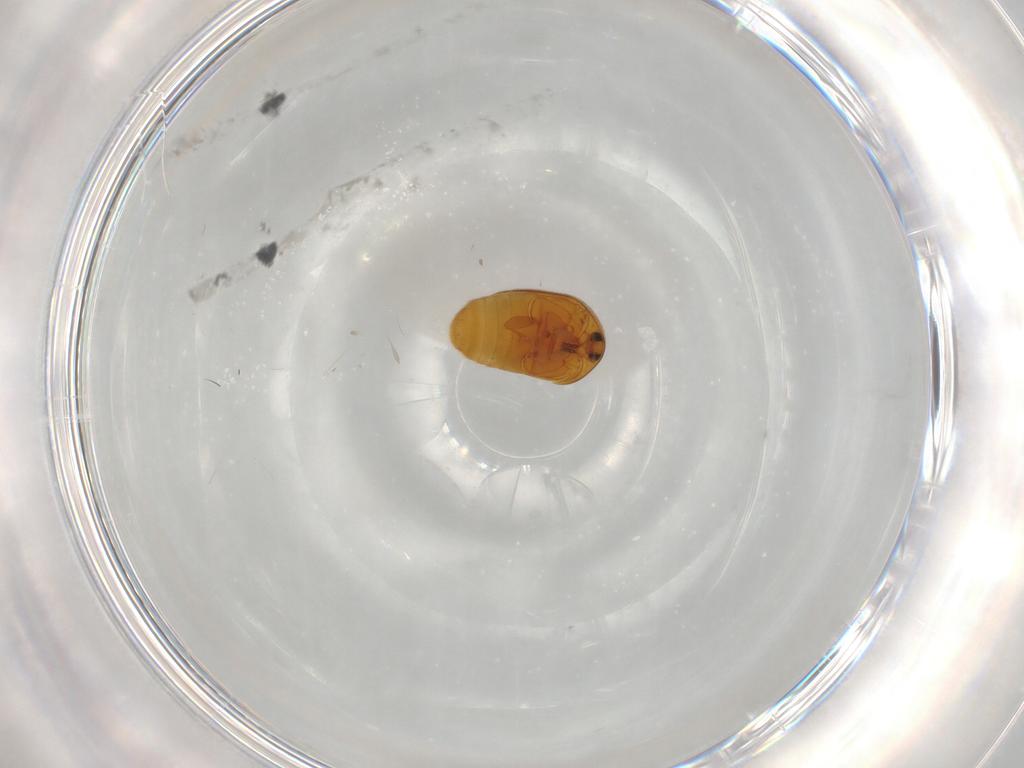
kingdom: Animalia
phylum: Arthropoda
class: Insecta
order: Coleoptera
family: Corylophidae
